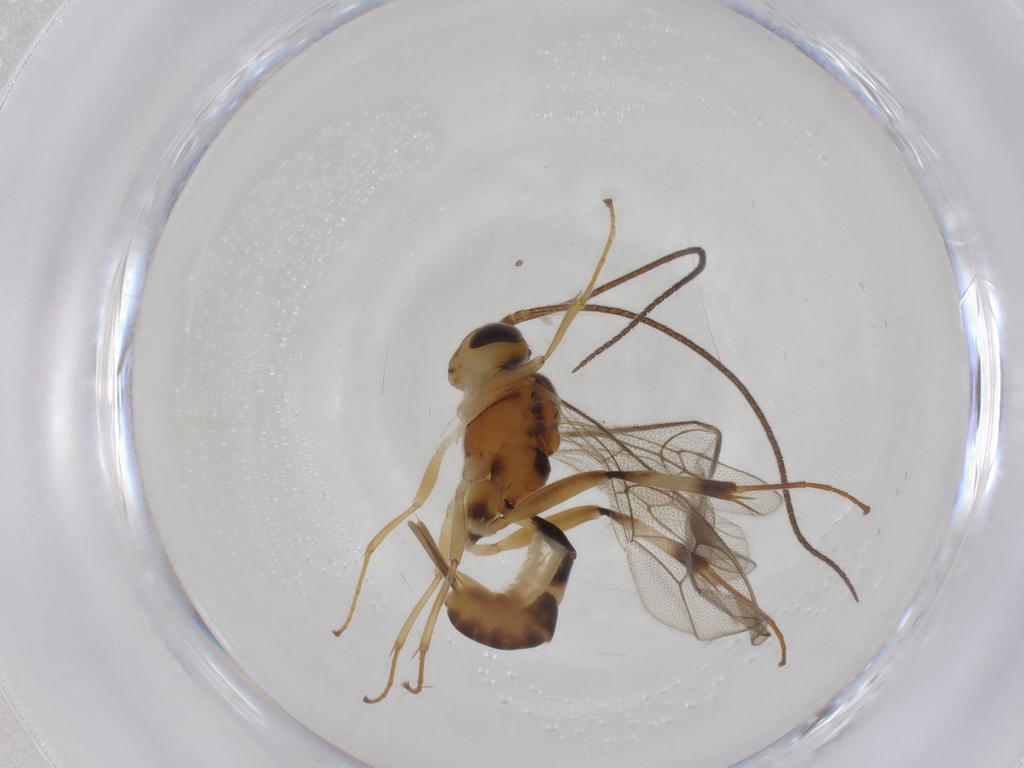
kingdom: Animalia
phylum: Arthropoda
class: Insecta
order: Hymenoptera
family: Ichneumonidae
